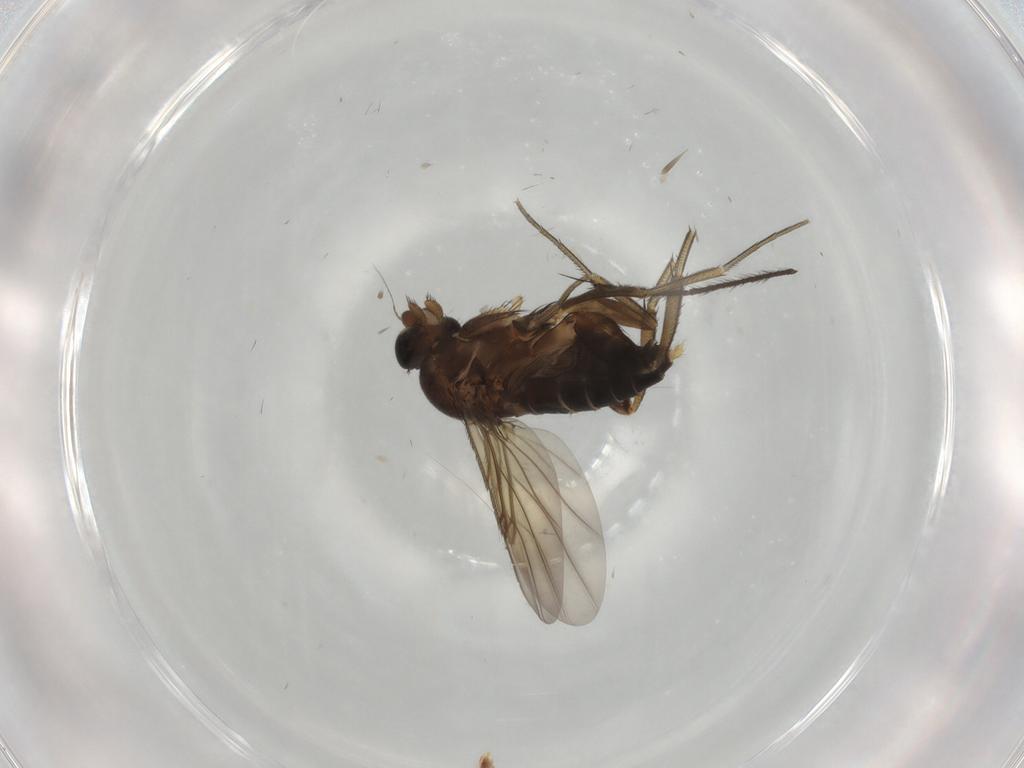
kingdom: Animalia
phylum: Arthropoda
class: Insecta
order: Diptera
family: Phoridae
